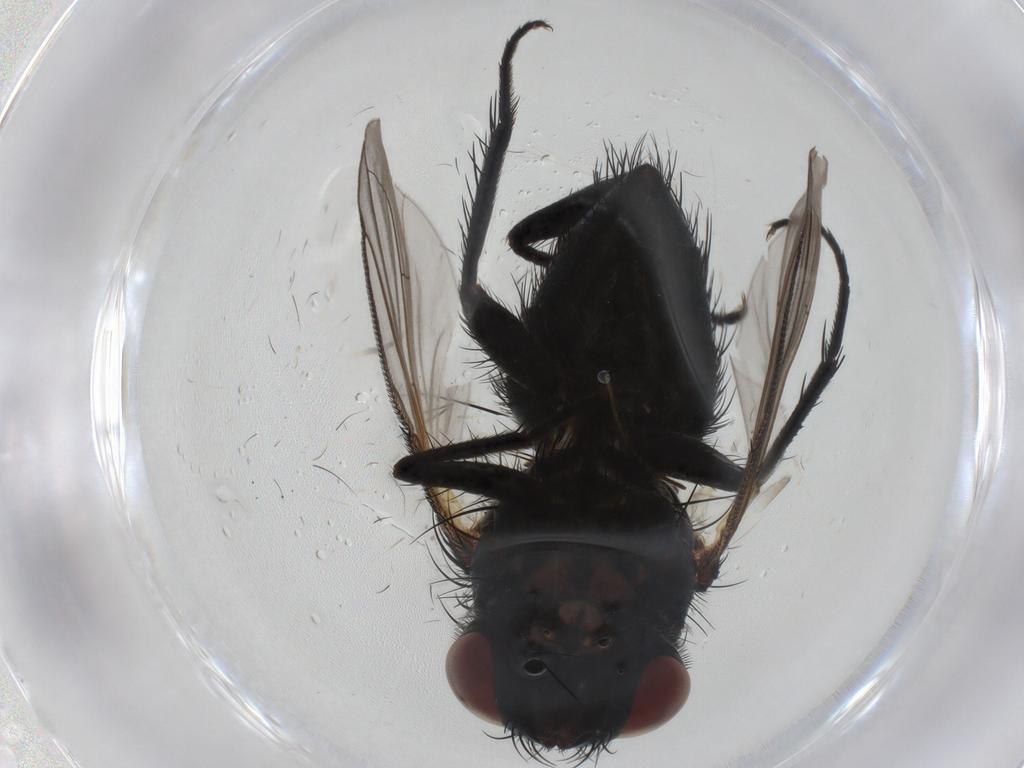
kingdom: Animalia
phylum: Arthropoda
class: Insecta
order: Diptera
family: Tachinidae
